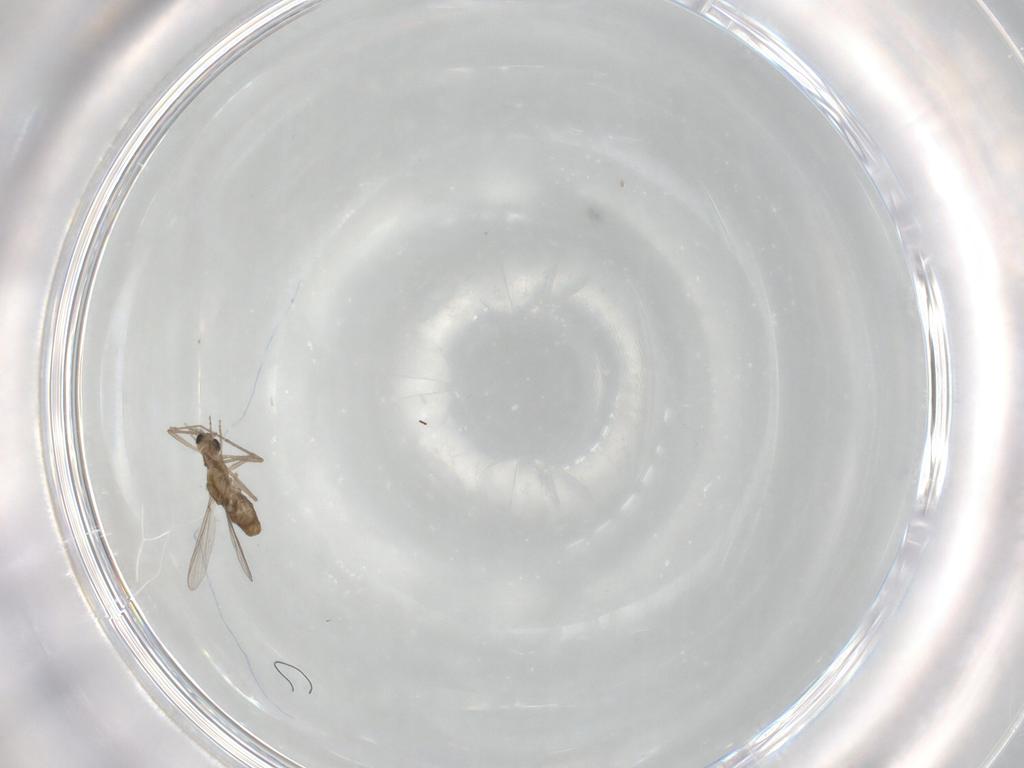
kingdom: Animalia
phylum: Arthropoda
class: Insecta
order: Diptera
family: Chironomidae
